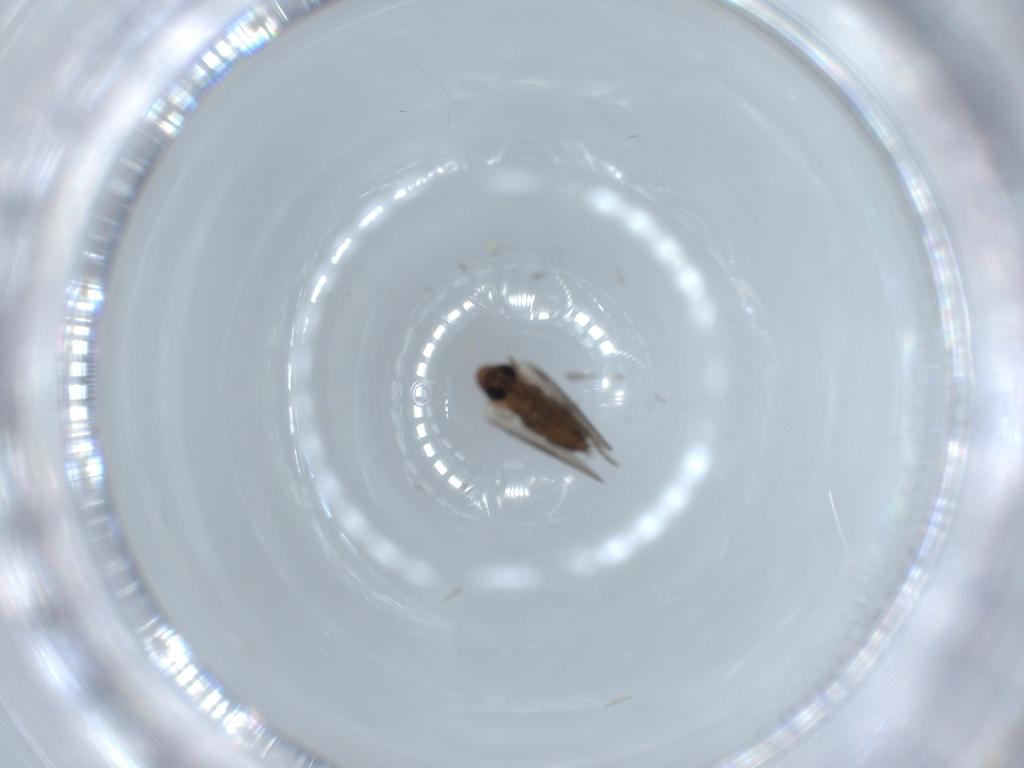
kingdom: Animalia
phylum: Arthropoda
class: Insecta
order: Diptera
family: Psychodidae
